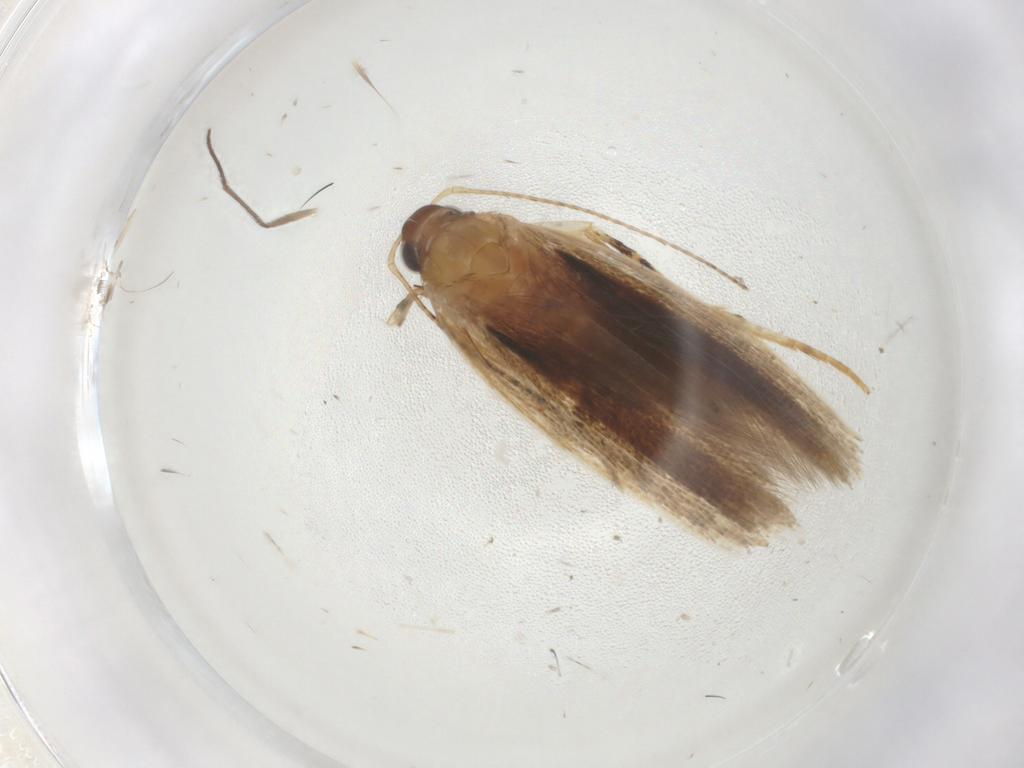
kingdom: Animalia
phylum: Arthropoda
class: Insecta
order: Lepidoptera
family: Gelechiidae
